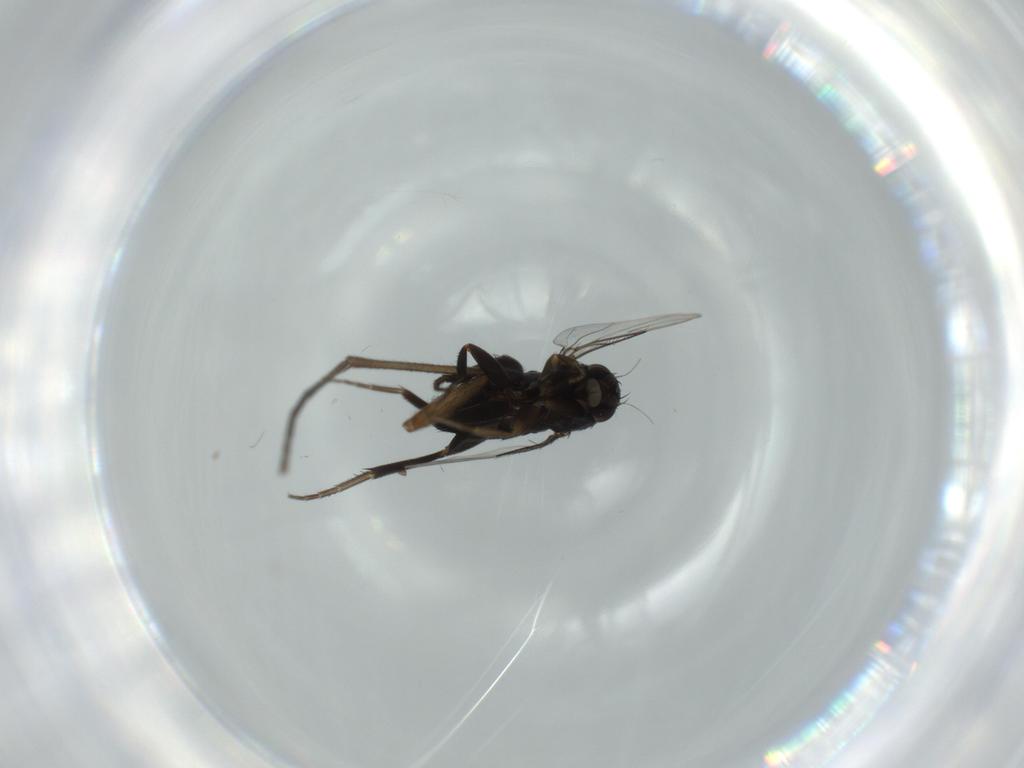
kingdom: Animalia
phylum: Arthropoda
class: Insecta
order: Diptera
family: Phoridae
